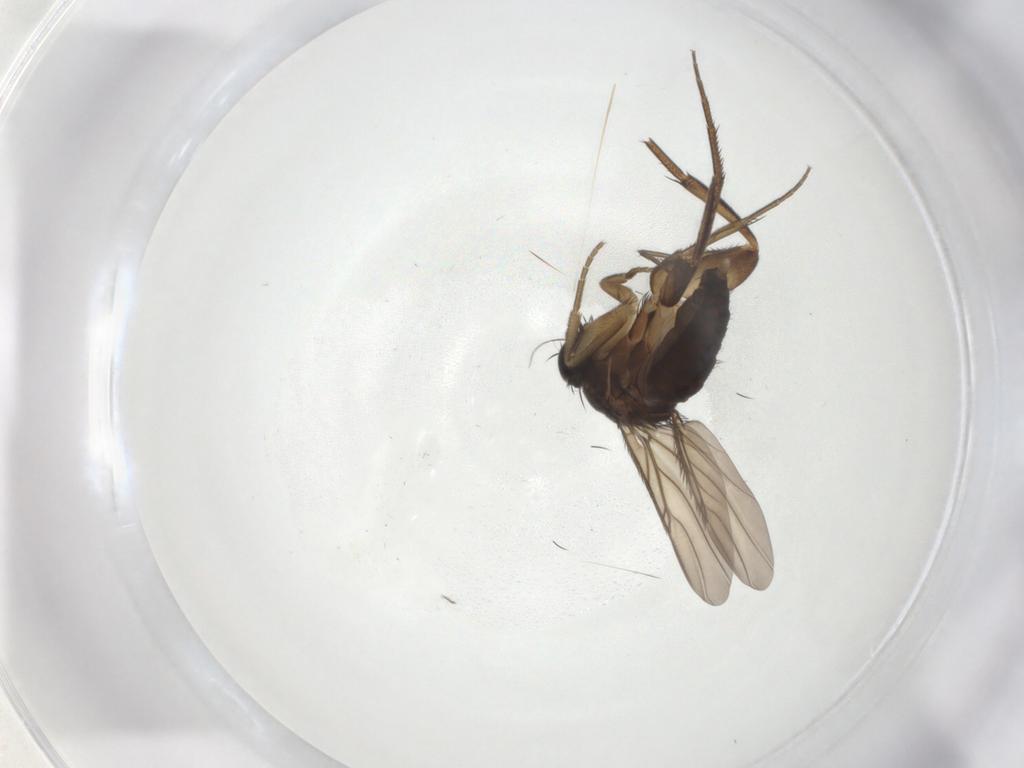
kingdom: Animalia
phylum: Arthropoda
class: Insecta
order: Diptera
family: Phoridae
